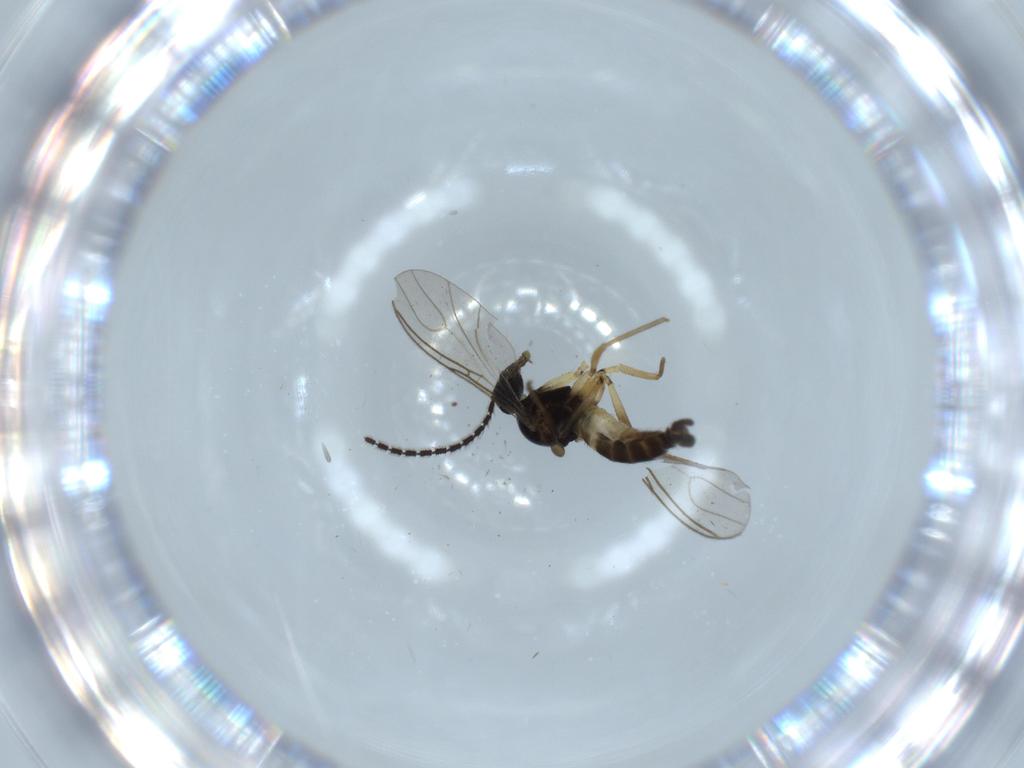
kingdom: Animalia
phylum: Arthropoda
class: Insecta
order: Diptera
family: Sciaridae
